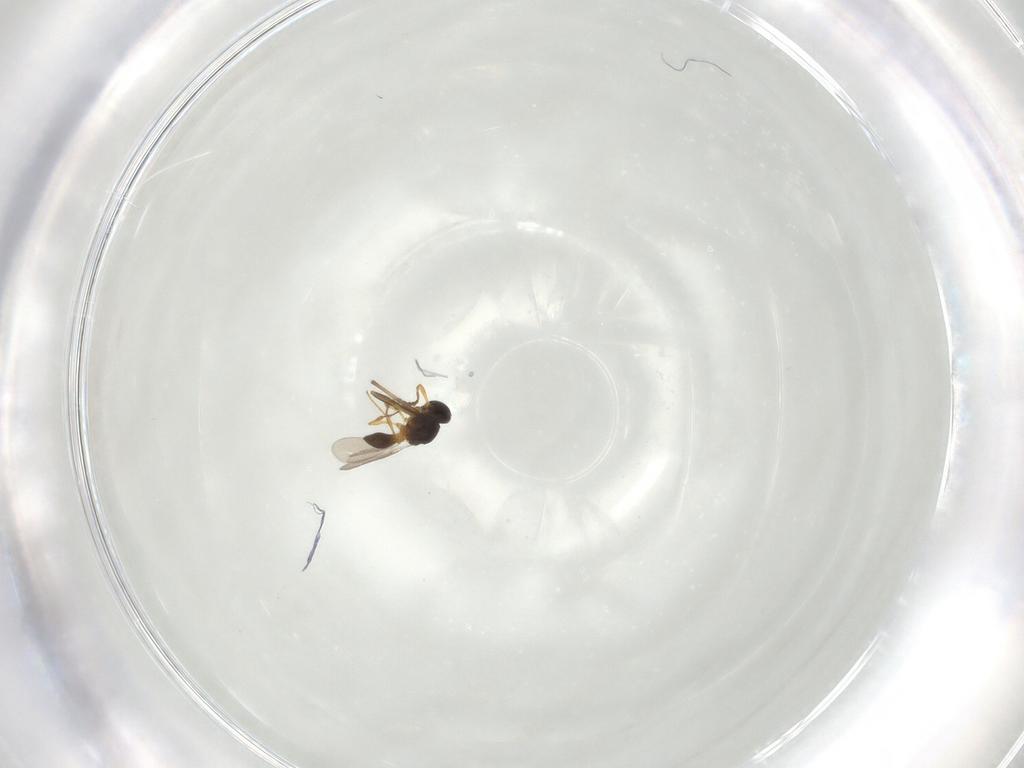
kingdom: Animalia
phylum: Arthropoda
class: Insecta
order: Hymenoptera
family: Platygastridae
